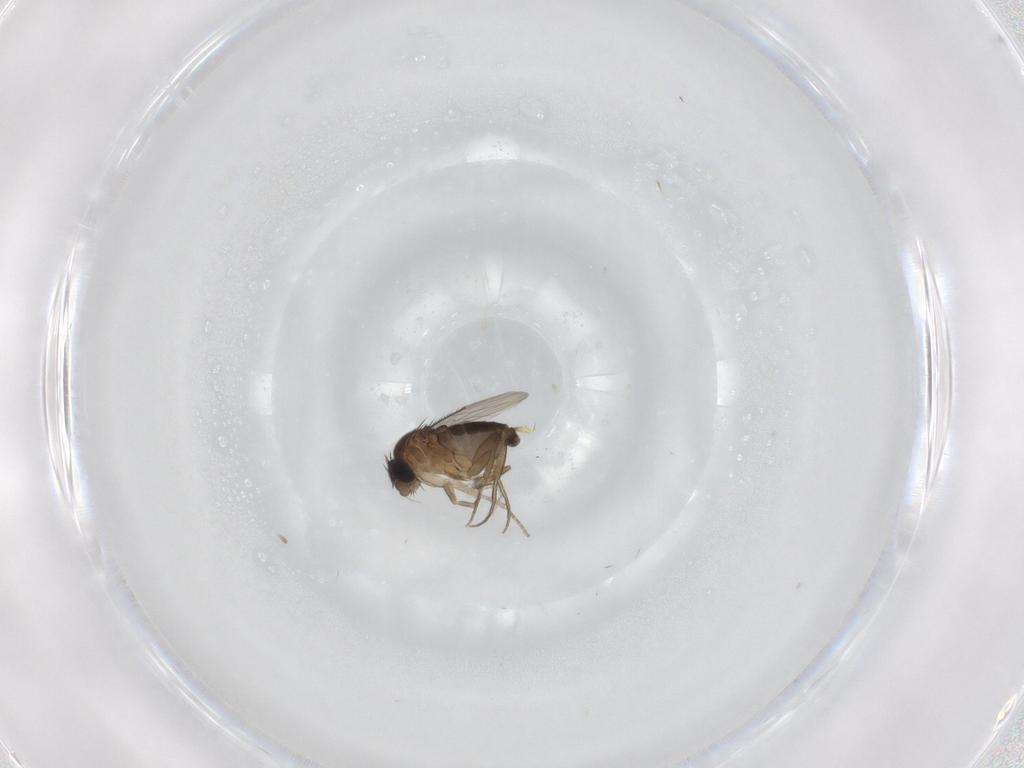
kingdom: Animalia
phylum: Arthropoda
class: Insecta
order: Diptera
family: Phoridae
